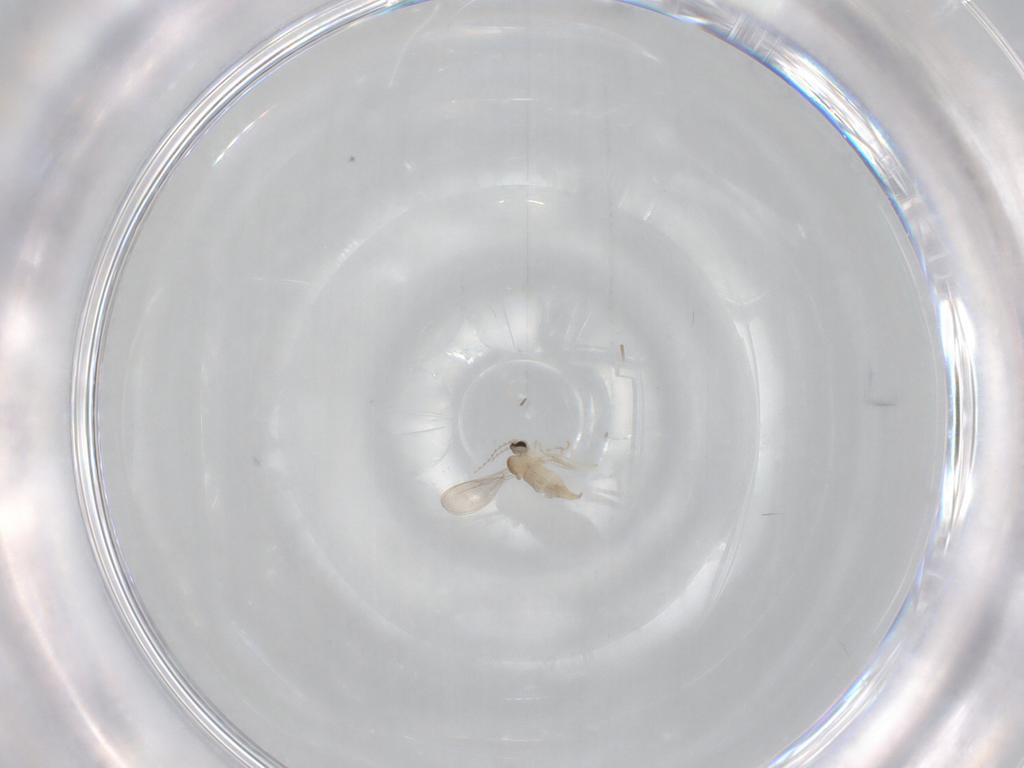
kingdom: Animalia
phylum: Arthropoda
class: Insecta
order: Diptera
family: Cecidomyiidae
